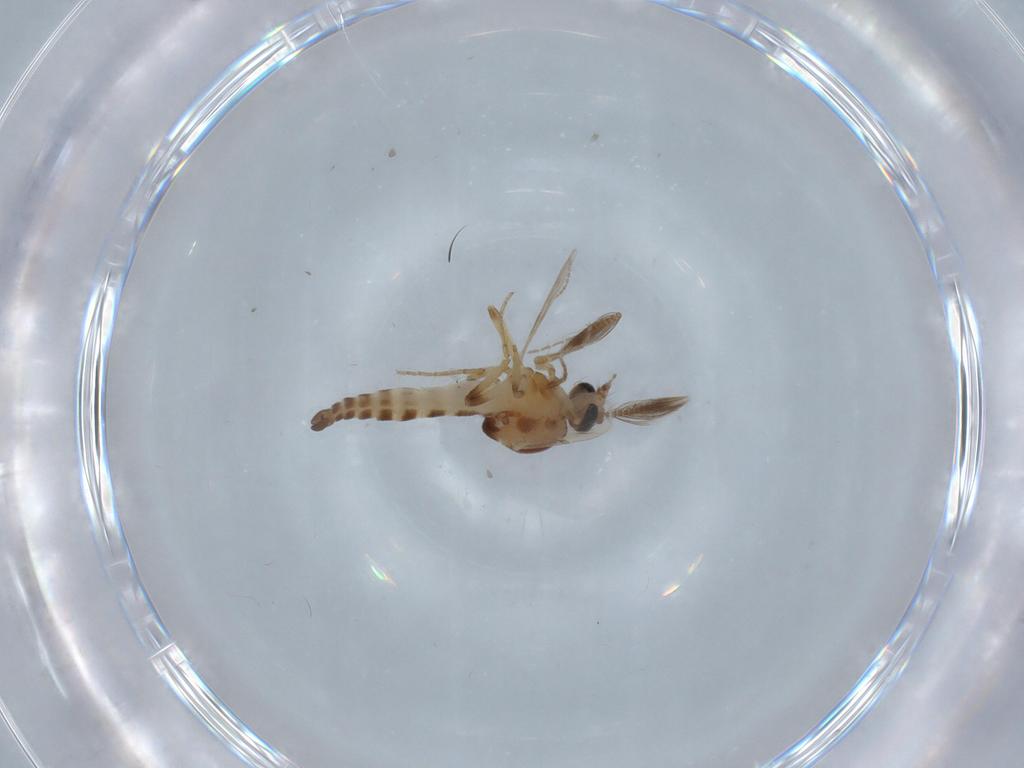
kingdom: Animalia
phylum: Arthropoda
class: Insecta
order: Diptera
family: Ceratopogonidae
